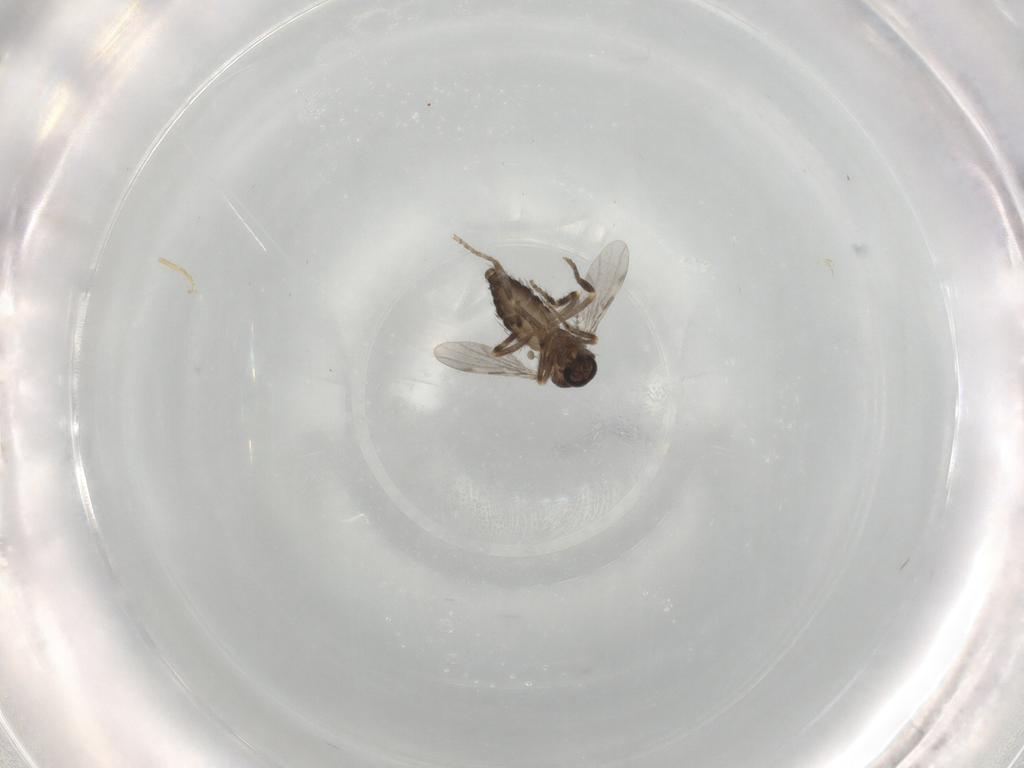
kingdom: Animalia
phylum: Arthropoda
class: Insecta
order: Diptera
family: Ceratopogonidae
